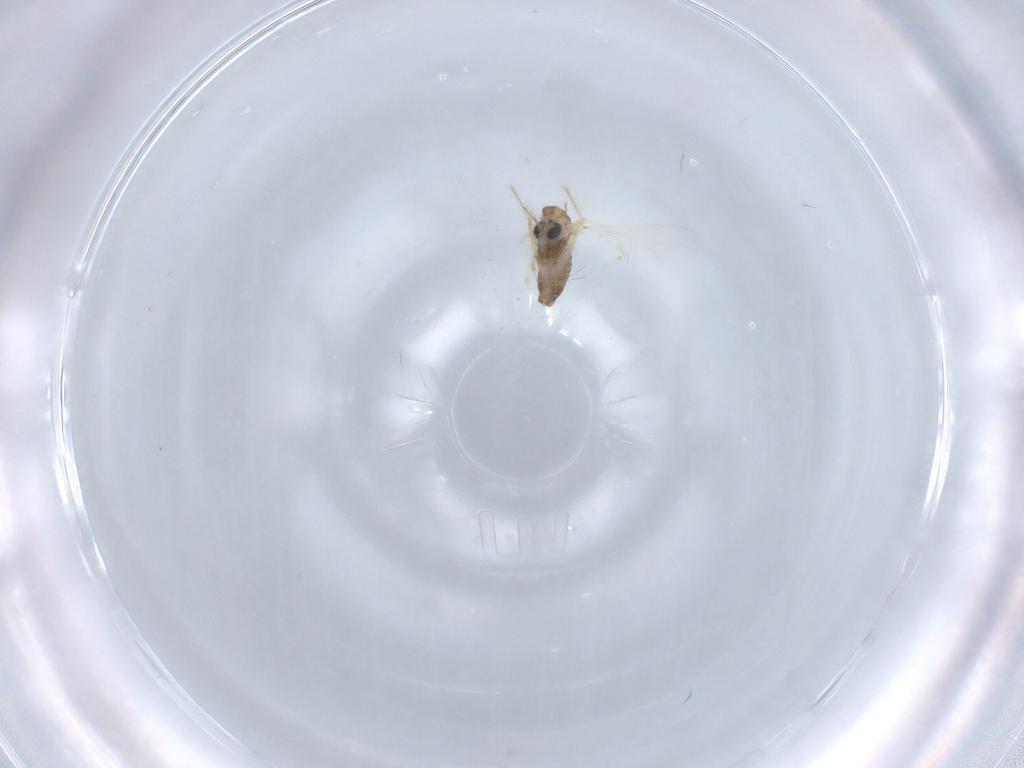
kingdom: Animalia
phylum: Arthropoda
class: Insecta
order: Diptera
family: Chironomidae
